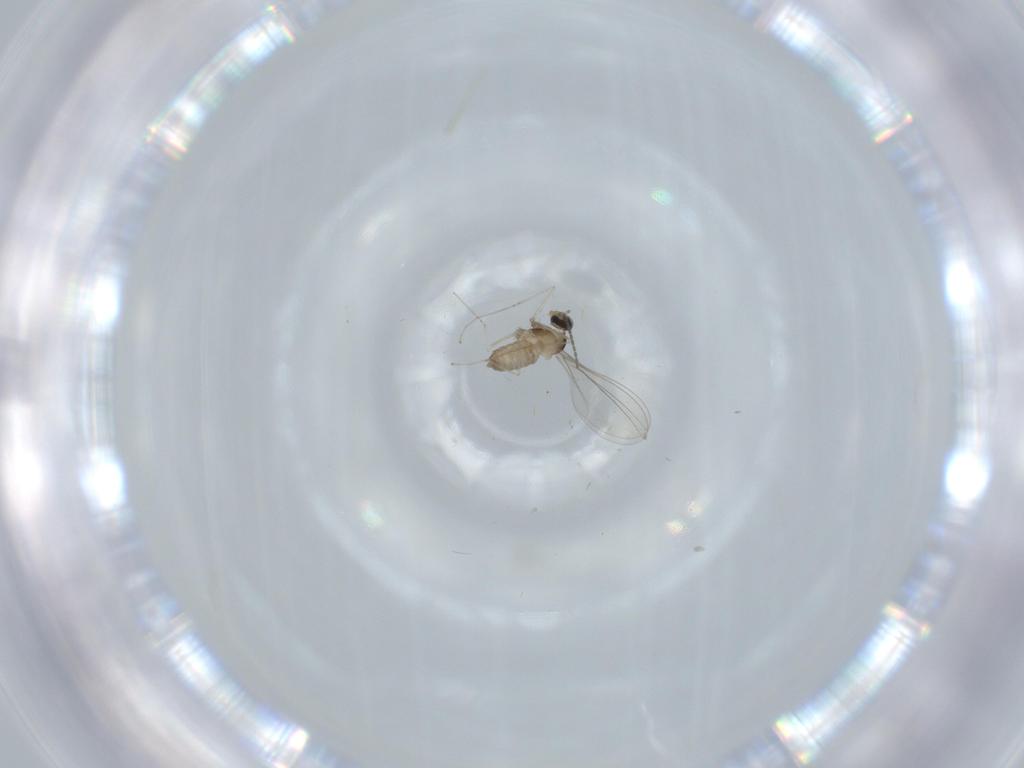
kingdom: Animalia
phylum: Arthropoda
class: Insecta
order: Diptera
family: Cecidomyiidae
